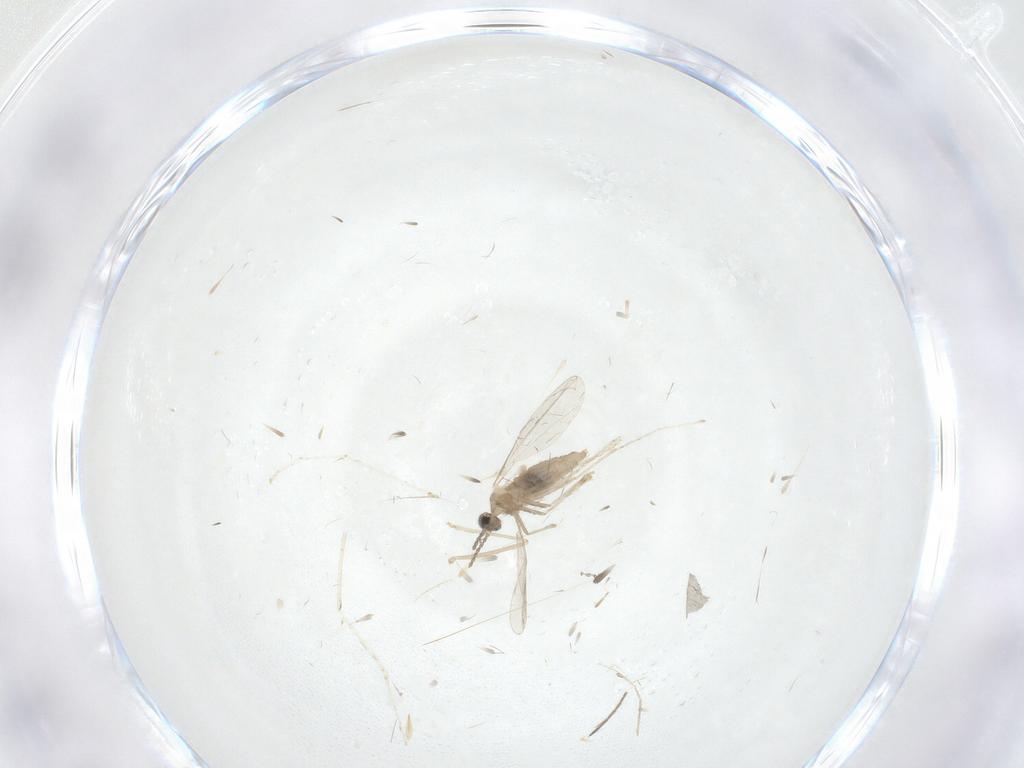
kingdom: Animalia
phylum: Arthropoda
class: Insecta
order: Diptera
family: Cecidomyiidae
